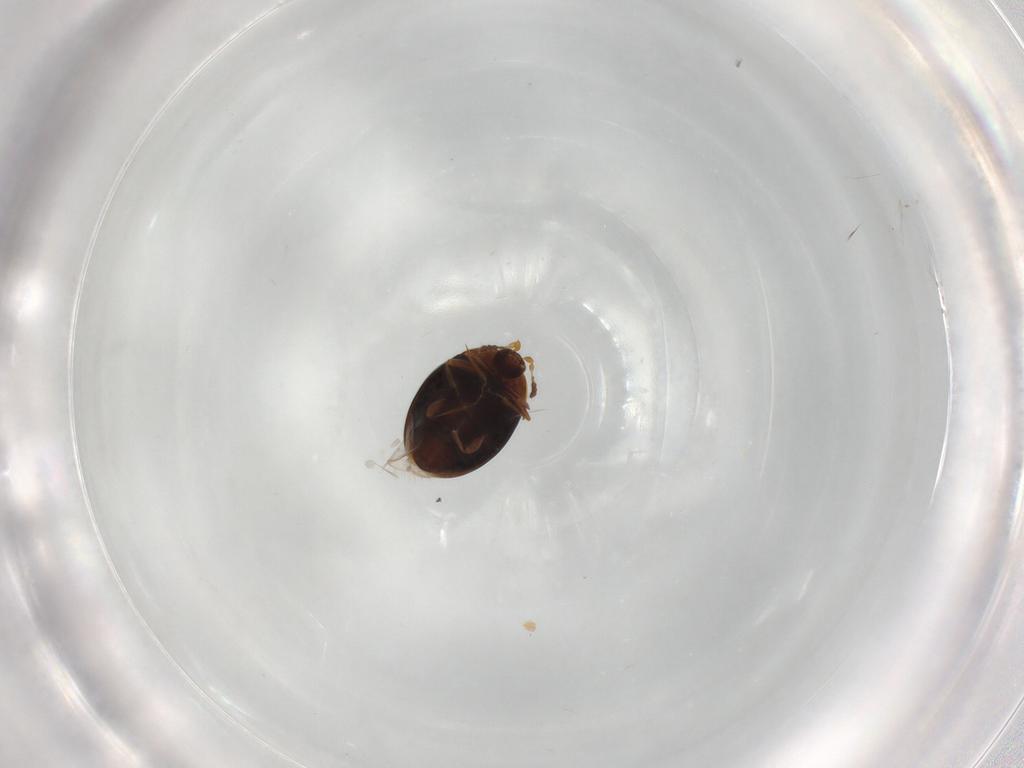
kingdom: Animalia
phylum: Arthropoda
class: Insecta
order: Coleoptera
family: Corylophidae
